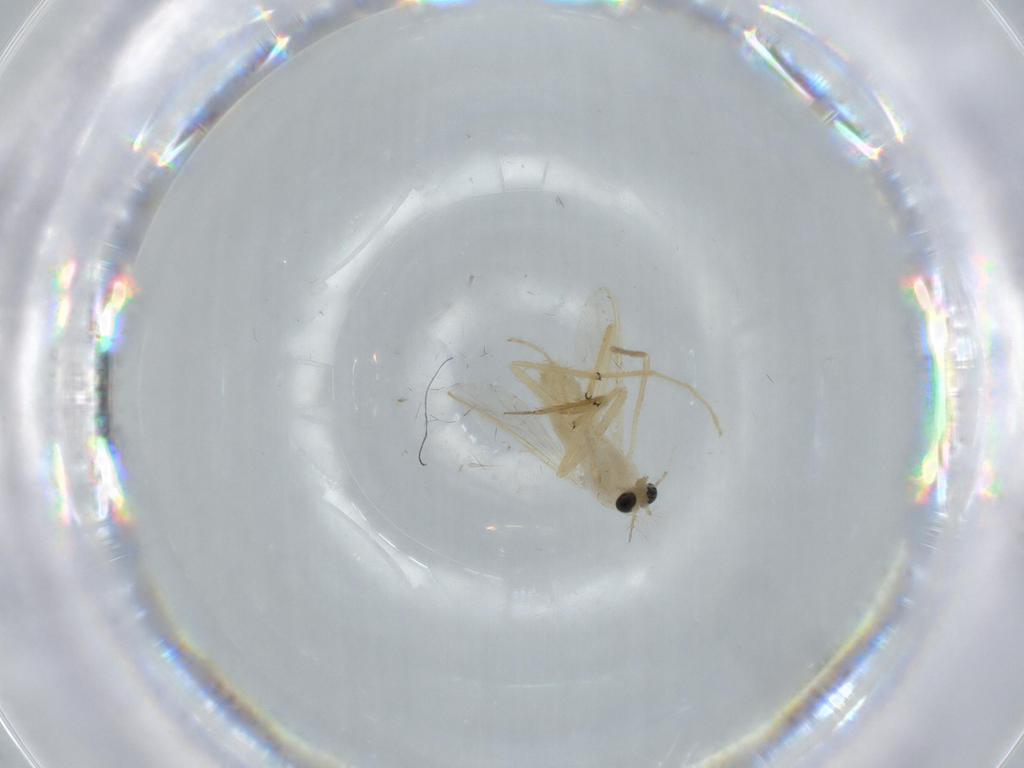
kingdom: Animalia
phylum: Arthropoda
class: Insecta
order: Diptera
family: Chironomidae
